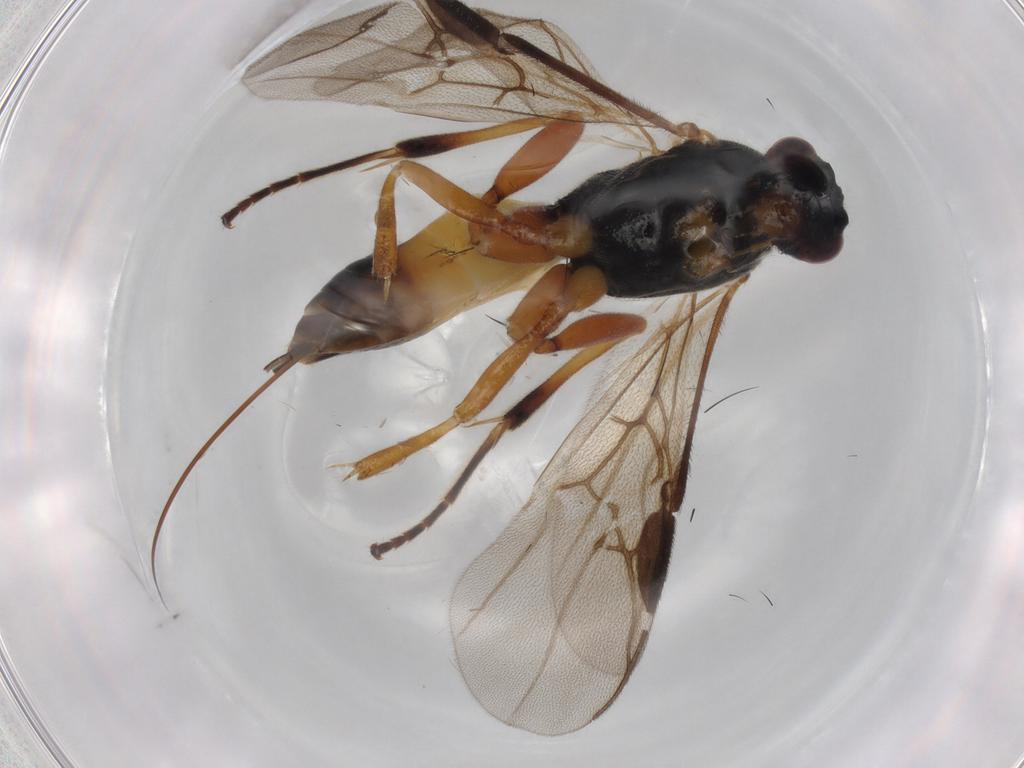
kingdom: Animalia
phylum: Arthropoda
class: Insecta
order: Hymenoptera
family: Braconidae
